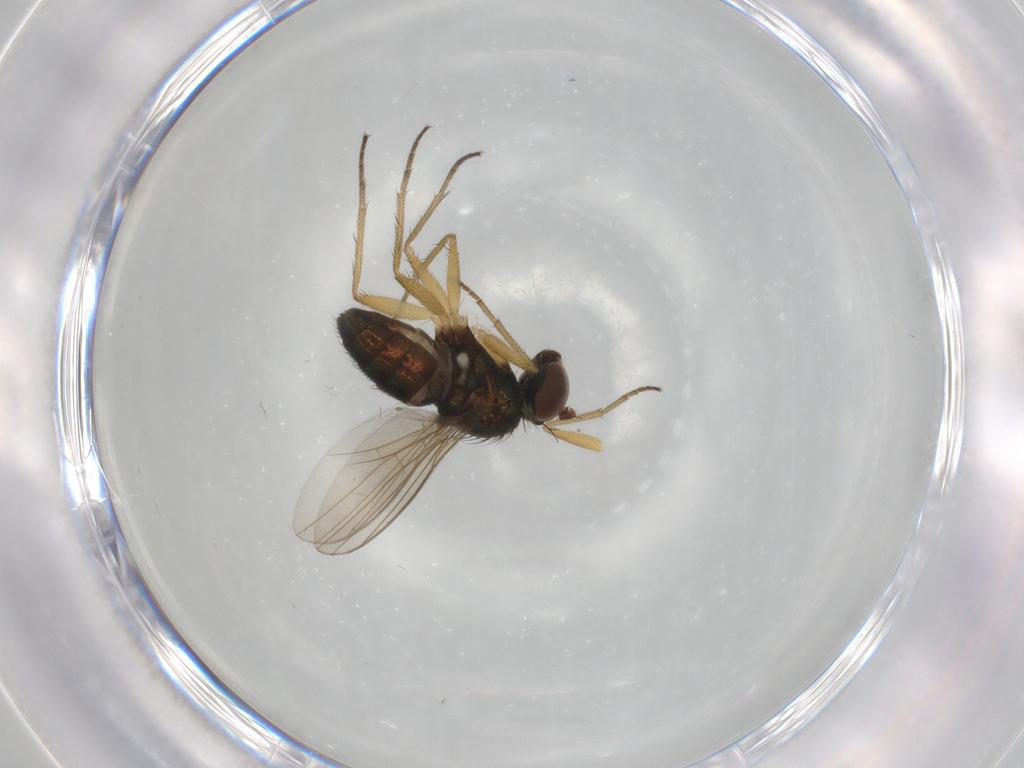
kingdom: Animalia
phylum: Arthropoda
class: Insecta
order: Diptera
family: Dolichopodidae
